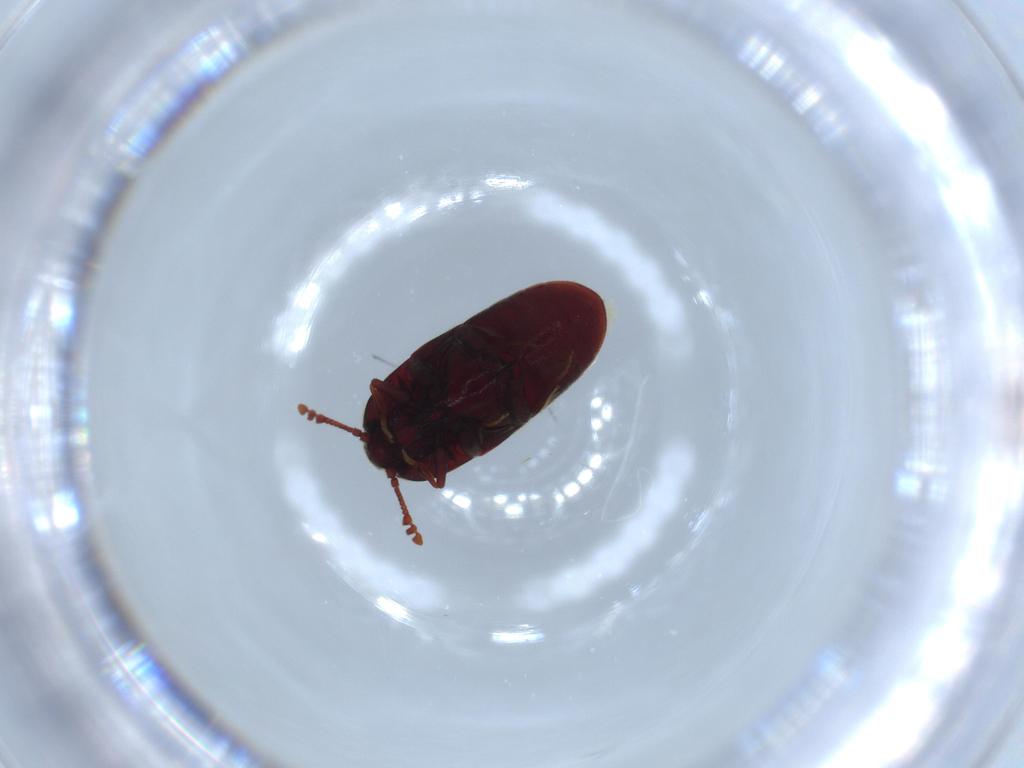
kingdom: Animalia
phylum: Arthropoda
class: Insecta
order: Coleoptera
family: Throscidae
